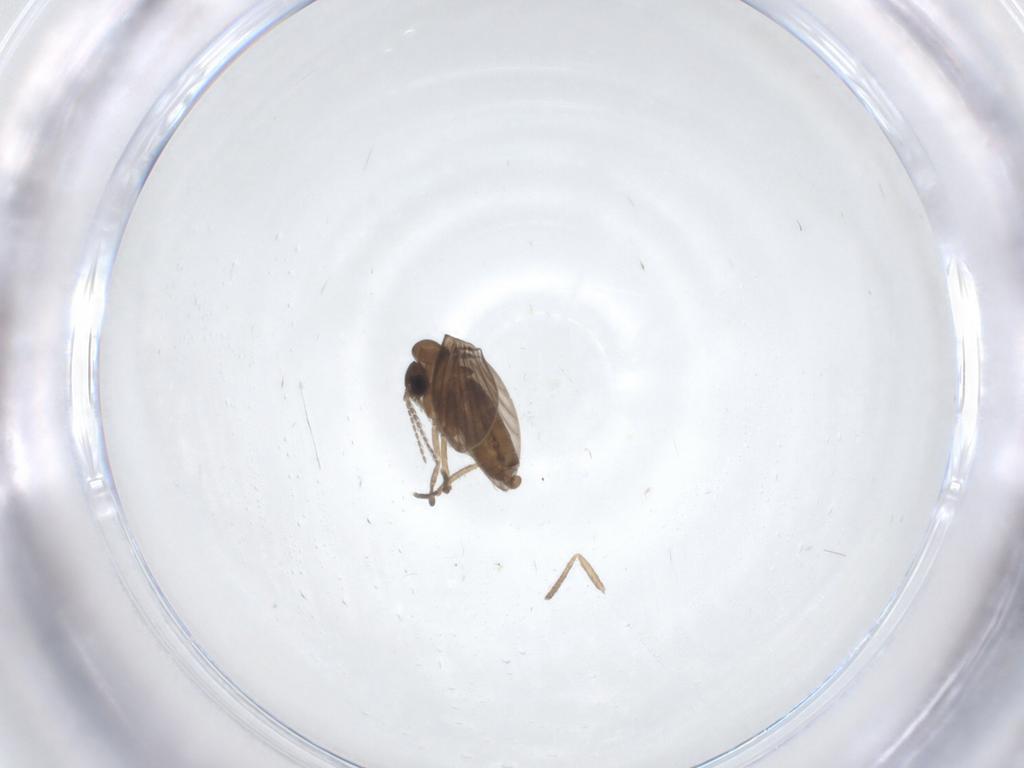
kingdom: Animalia
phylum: Arthropoda
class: Insecta
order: Diptera
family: Psychodidae
